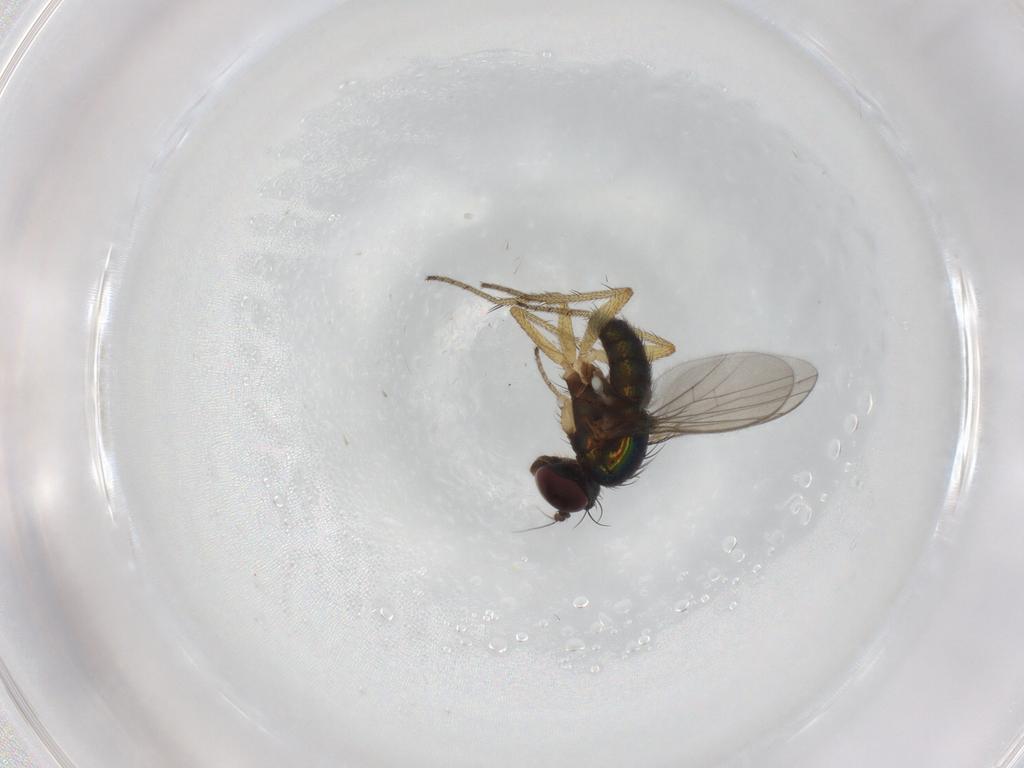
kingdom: Animalia
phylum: Arthropoda
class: Insecta
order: Diptera
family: Dolichopodidae
